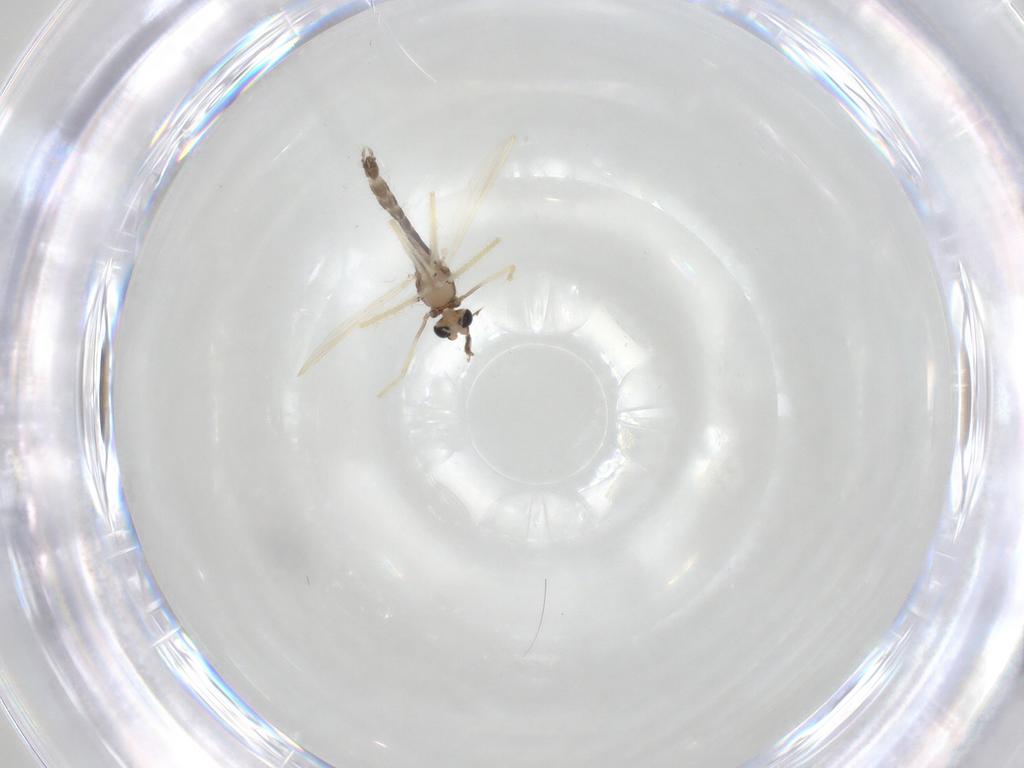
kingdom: Animalia
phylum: Arthropoda
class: Insecta
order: Diptera
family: Chironomidae
